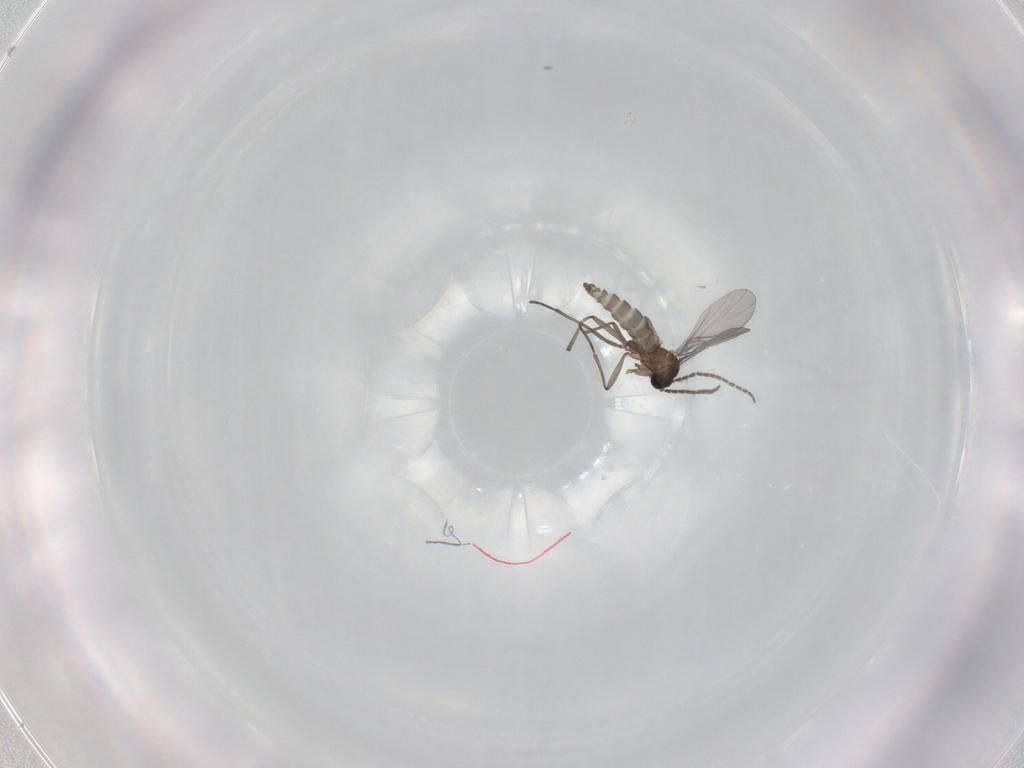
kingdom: Animalia
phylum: Arthropoda
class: Insecta
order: Diptera
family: Sciaridae
